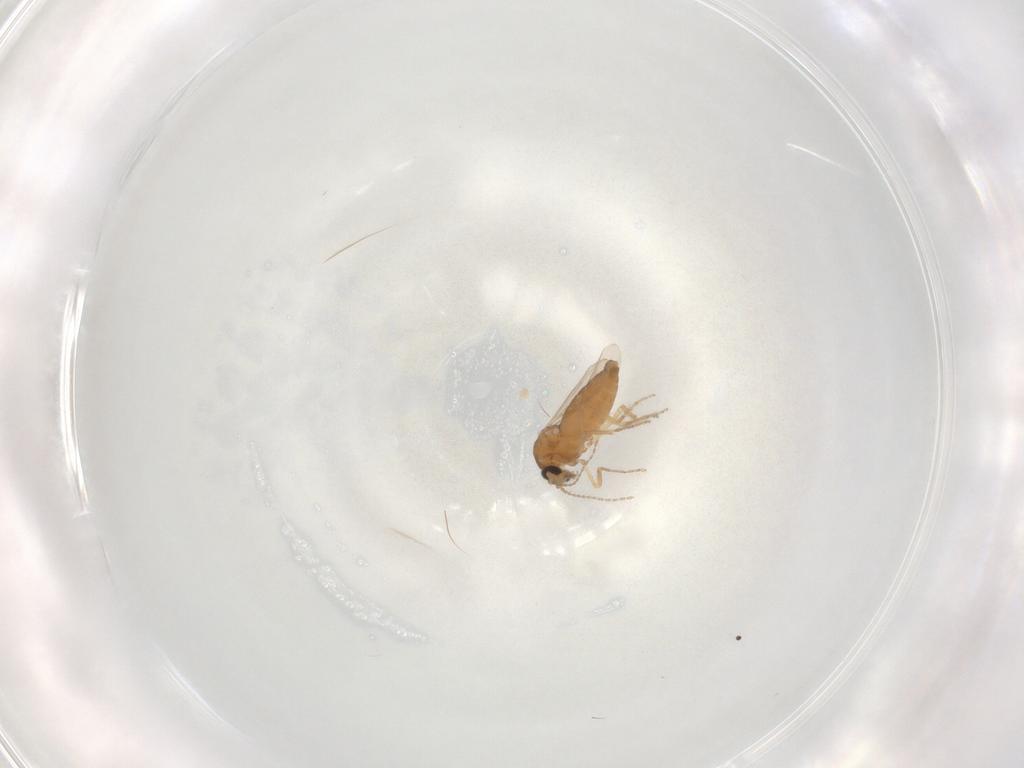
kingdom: Animalia
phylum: Arthropoda
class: Insecta
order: Diptera
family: Ceratopogonidae
